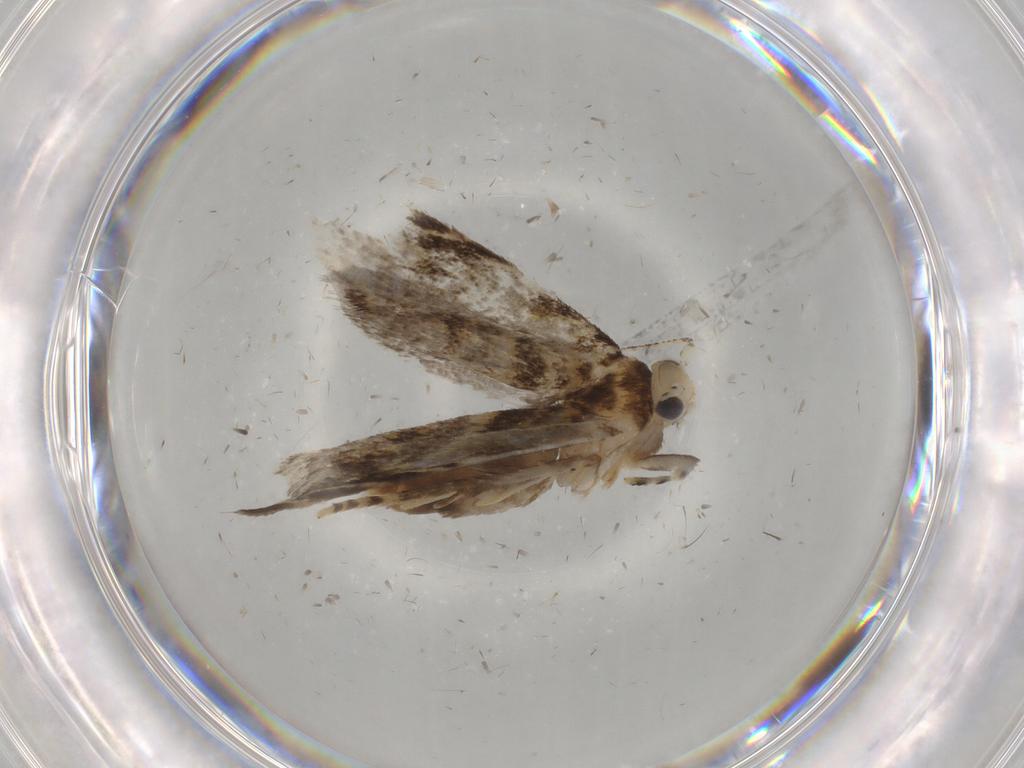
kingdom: Animalia
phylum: Arthropoda
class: Insecta
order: Lepidoptera
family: Tineidae
